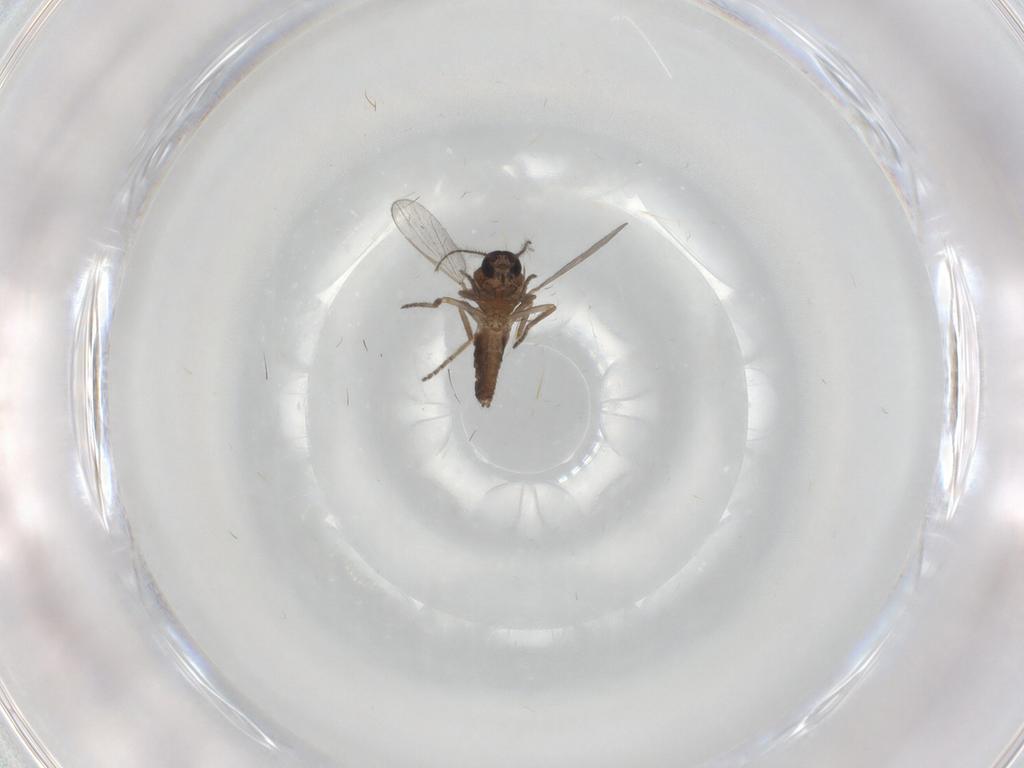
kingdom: Animalia
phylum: Arthropoda
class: Insecta
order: Diptera
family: Ceratopogonidae
